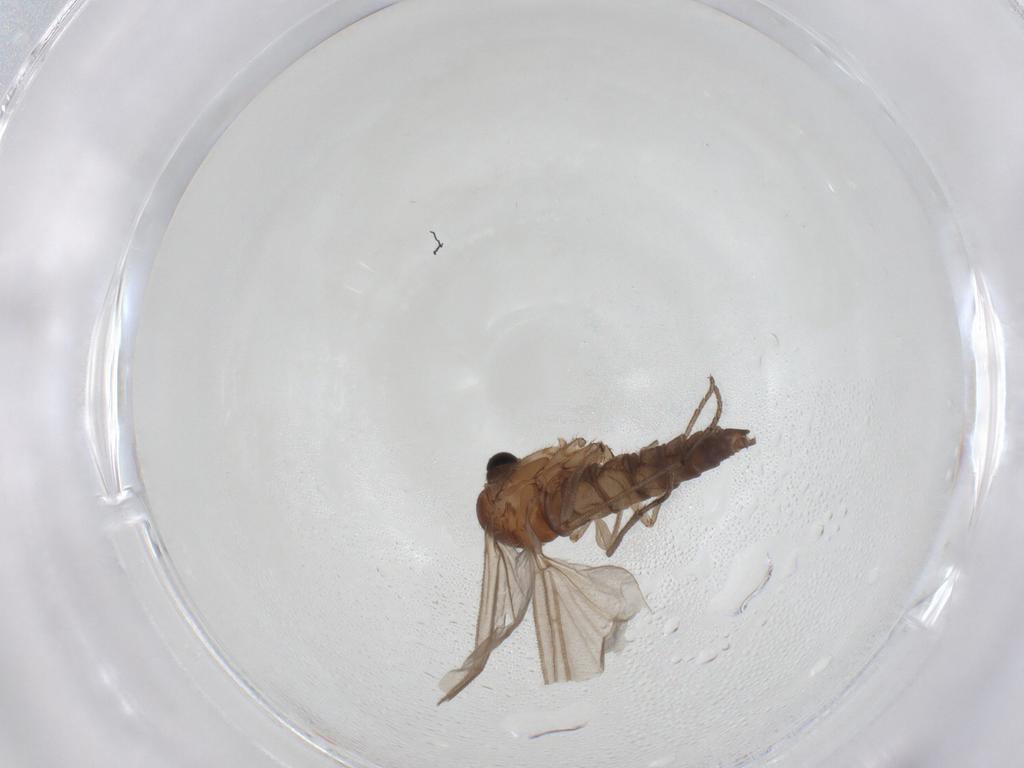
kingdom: Animalia
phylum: Arthropoda
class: Insecta
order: Diptera
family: Sciaridae
